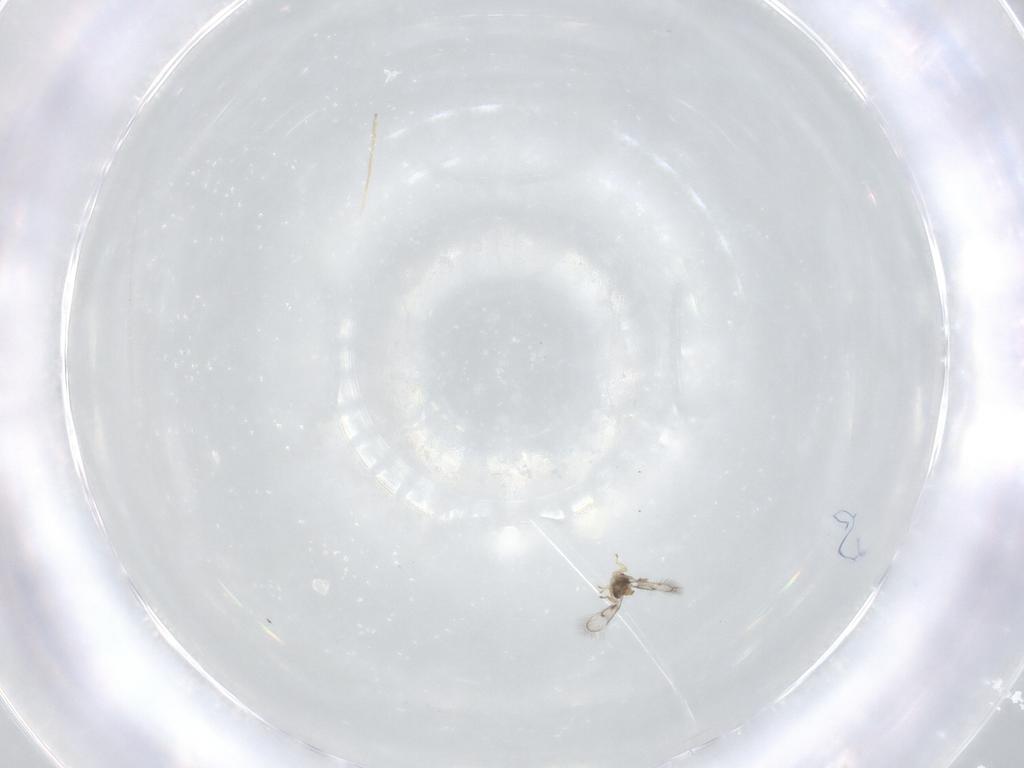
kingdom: Animalia
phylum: Arthropoda
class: Insecta
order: Hymenoptera
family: Trichogrammatidae
